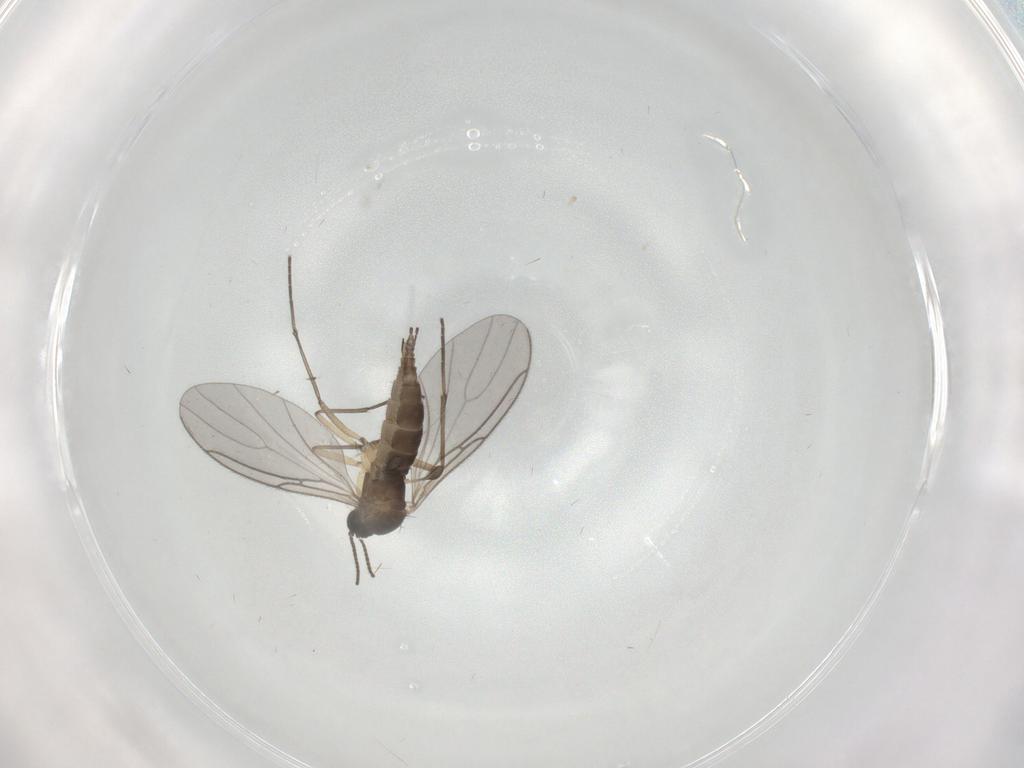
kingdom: Animalia
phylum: Arthropoda
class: Insecta
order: Diptera
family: Sciaridae
